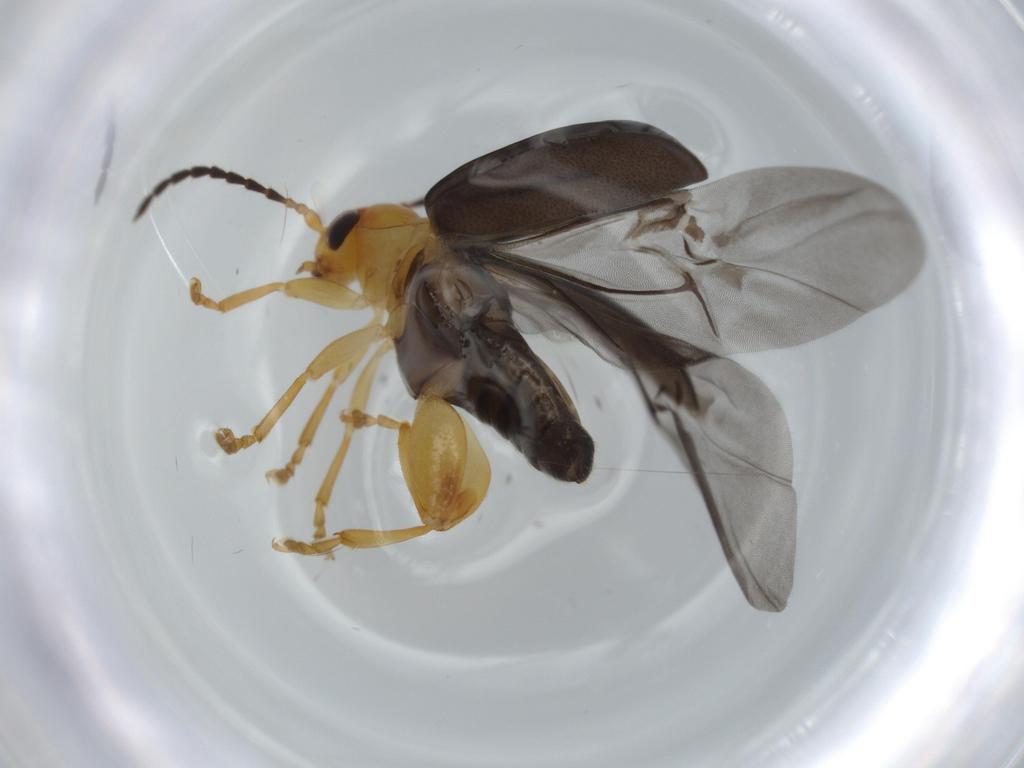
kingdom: Animalia
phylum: Arthropoda
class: Insecta
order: Coleoptera
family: Chrysomelidae
